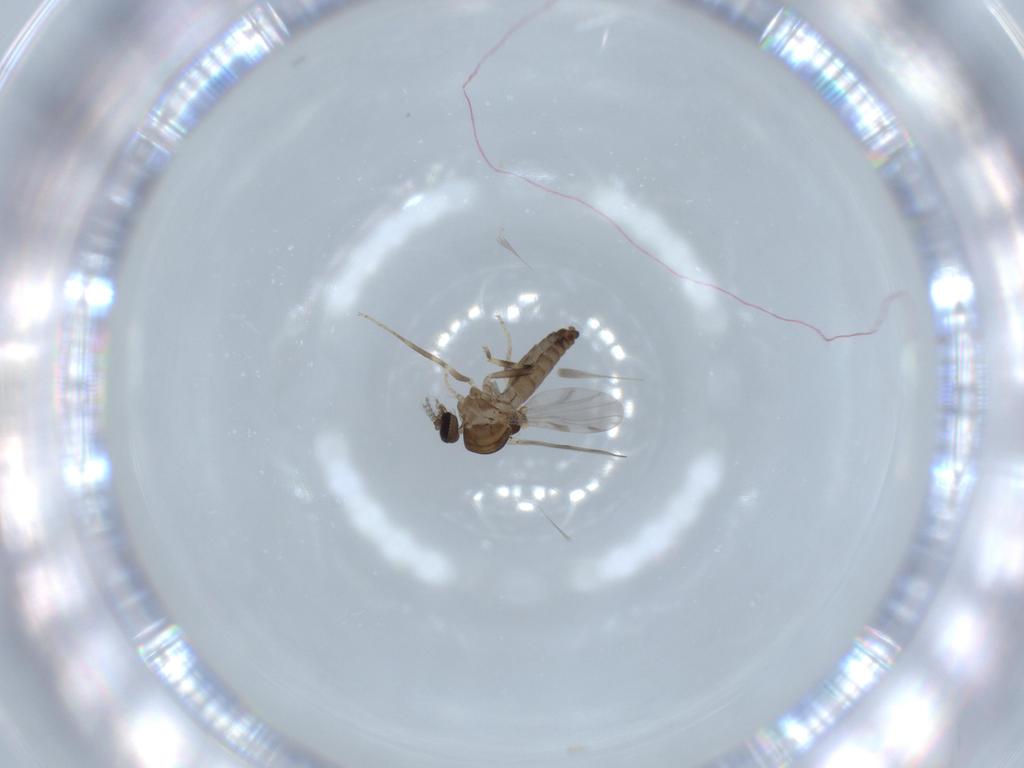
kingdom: Animalia
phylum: Arthropoda
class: Insecta
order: Diptera
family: Ceratopogonidae
